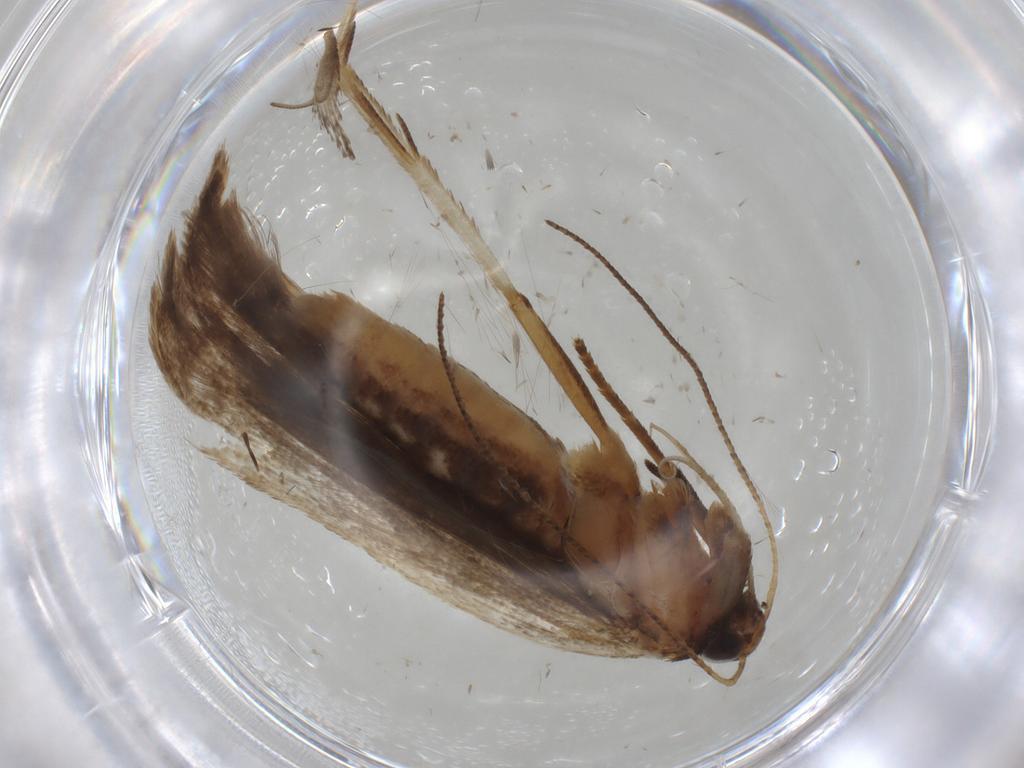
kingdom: Animalia
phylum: Arthropoda
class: Insecta
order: Lepidoptera
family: Gelechiidae
